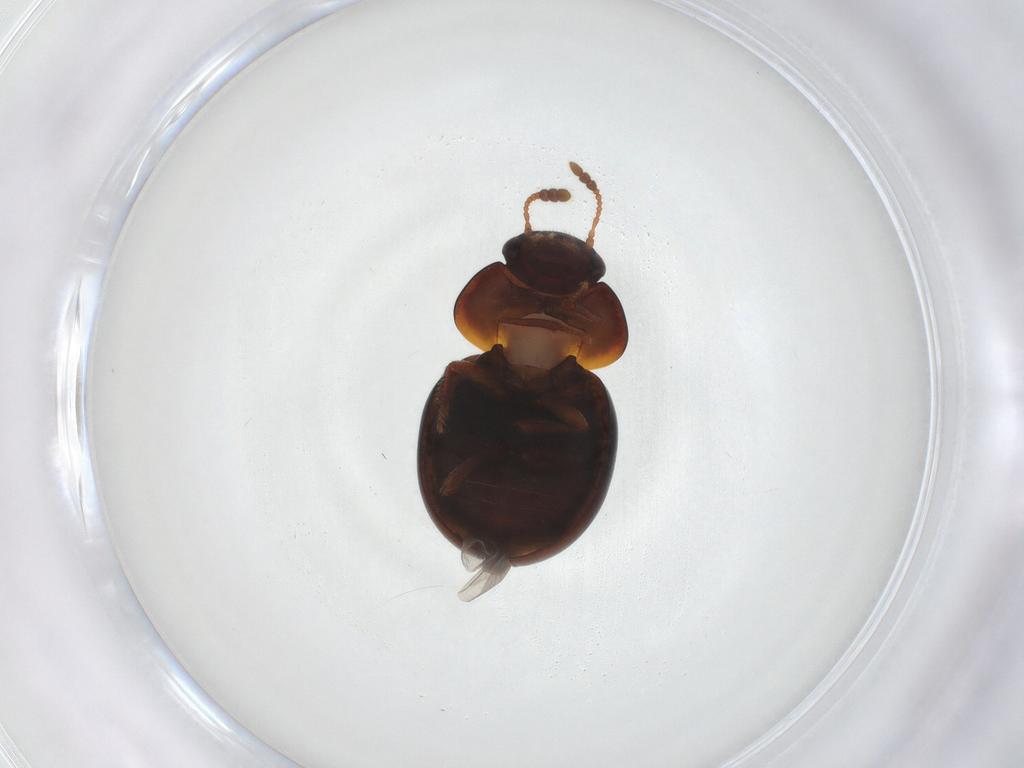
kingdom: Animalia
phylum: Arthropoda
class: Insecta
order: Coleoptera
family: Leiodidae
